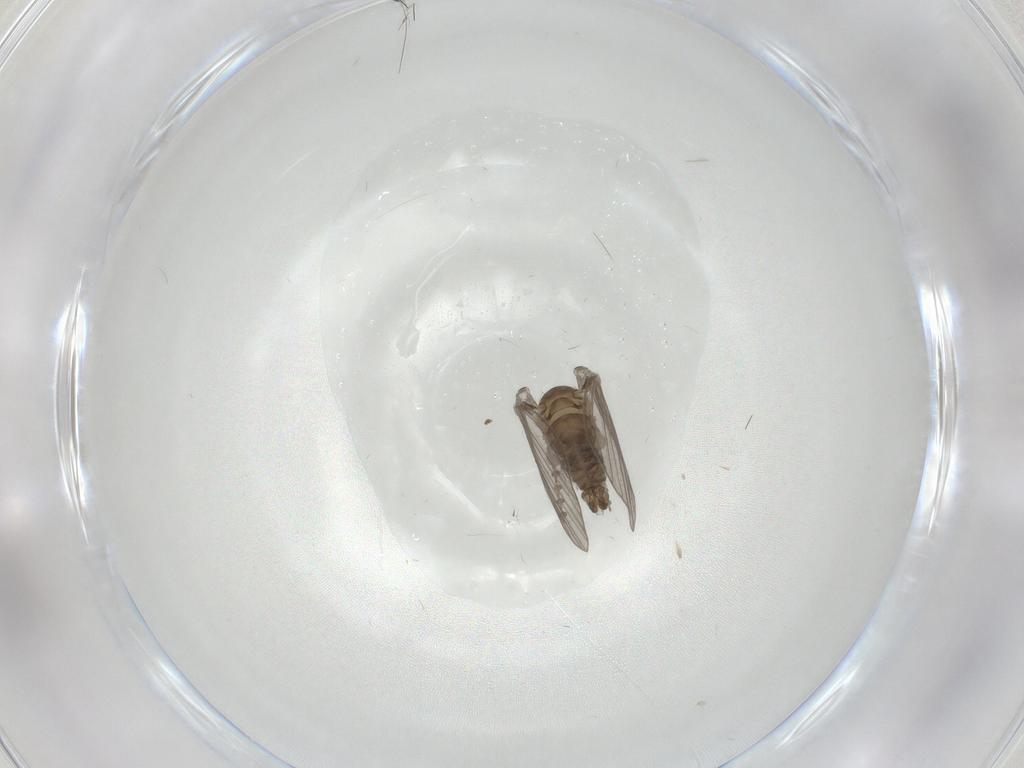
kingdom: Animalia
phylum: Arthropoda
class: Insecta
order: Diptera
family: Psychodidae
